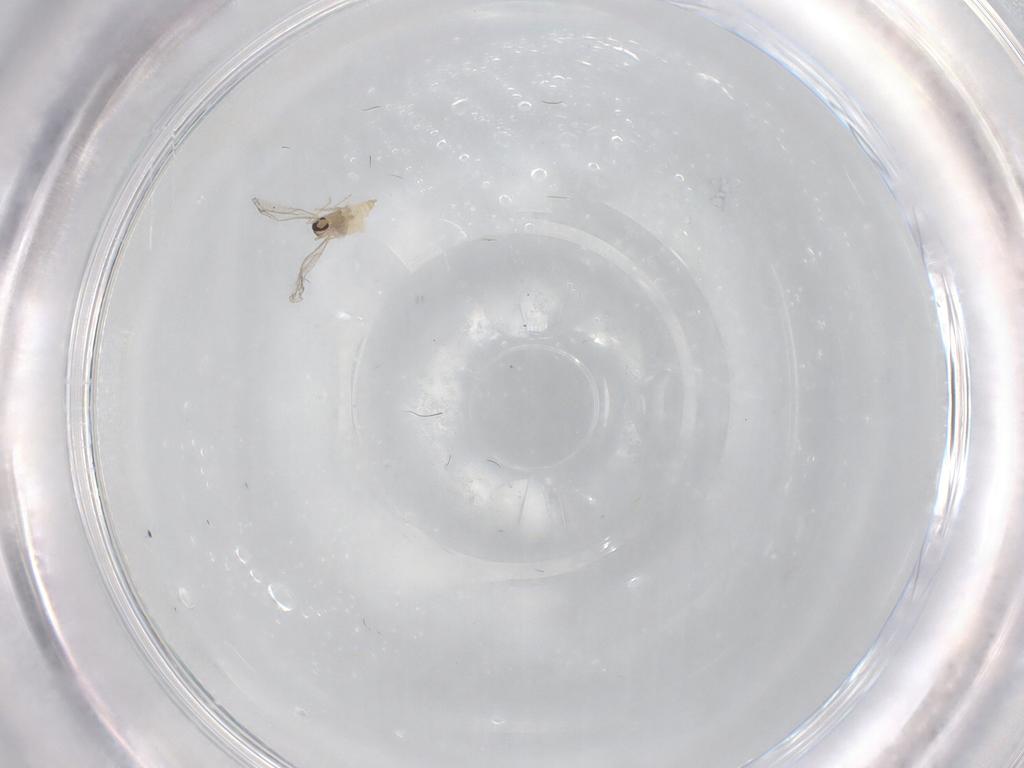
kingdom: Animalia
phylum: Arthropoda
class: Insecta
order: Diptera
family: Cecidomyiidae
